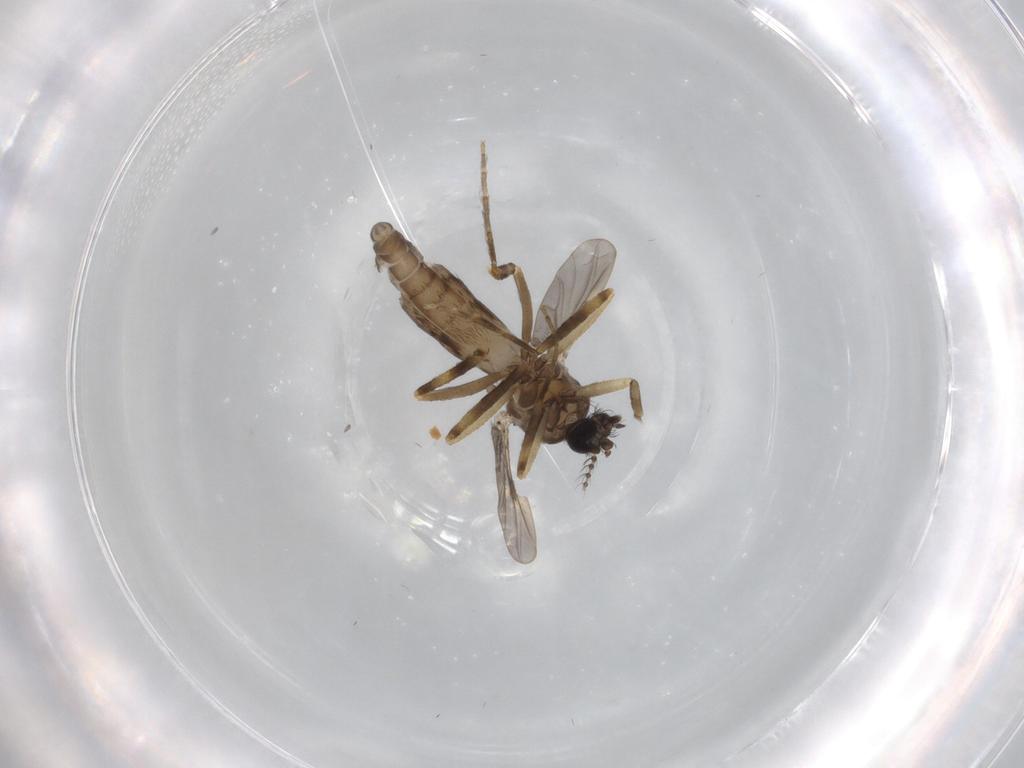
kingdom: Animalia
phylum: Arthropoda
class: Insecta
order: Diptera
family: Ceratopogonidae
